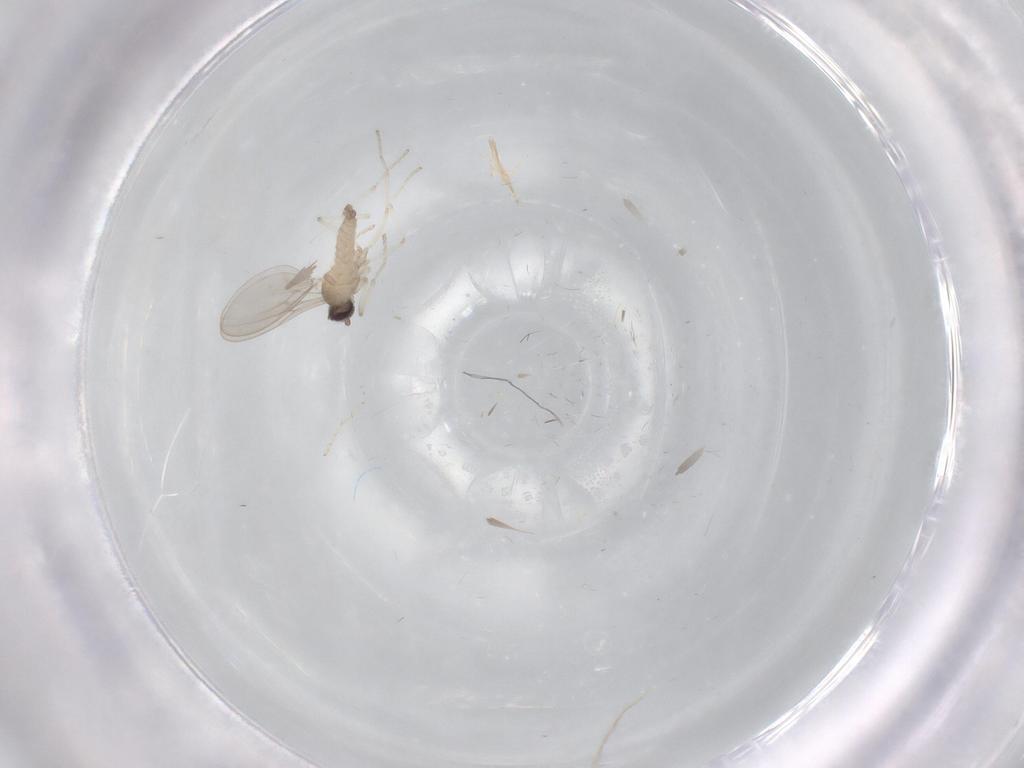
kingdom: Animalia
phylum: Arthropoda
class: Insecta
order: Diptera
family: Cecidomyiidae
